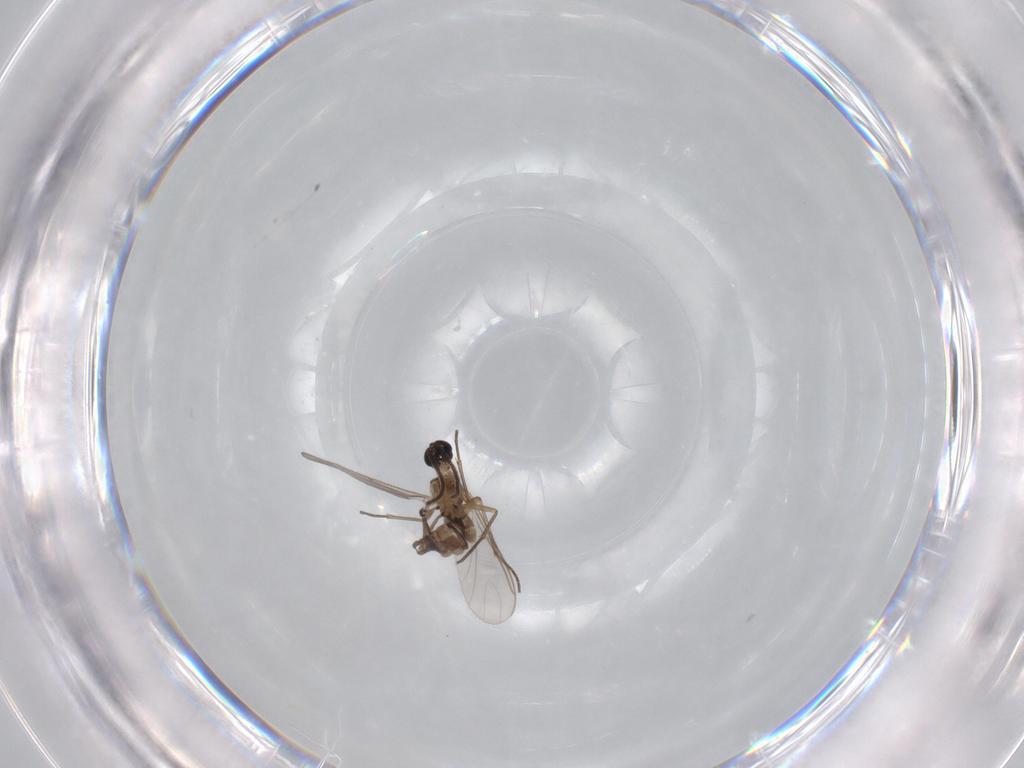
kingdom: Animalia
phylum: Arthropoda
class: Insecta
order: Diptera
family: Sciaridae
